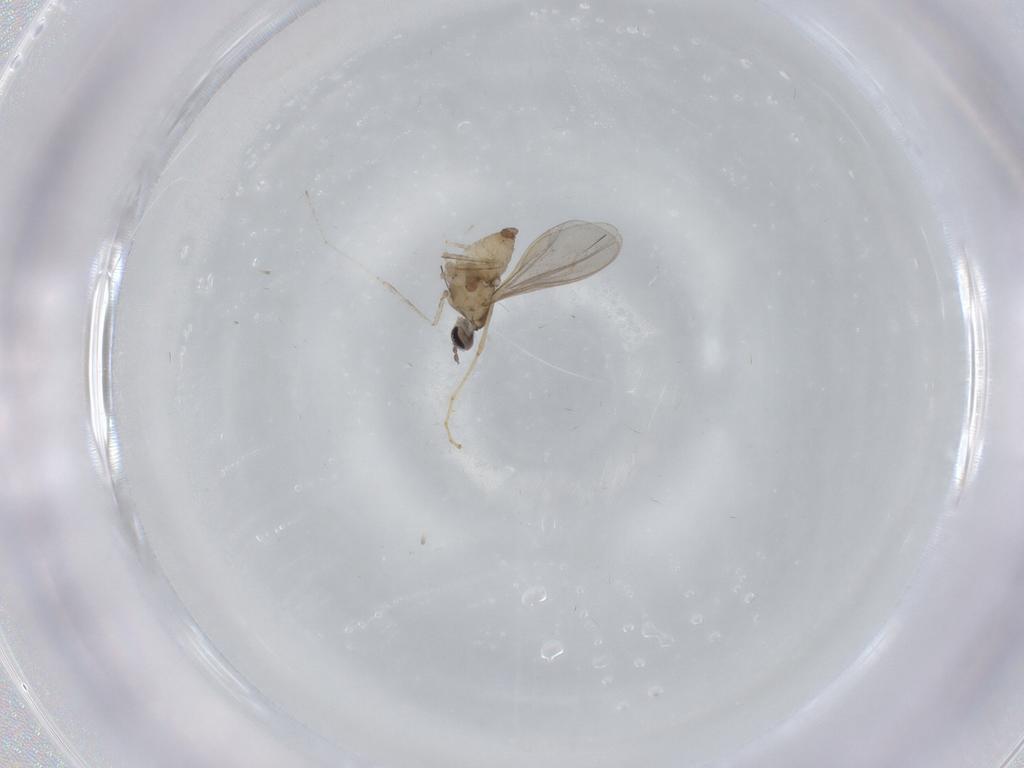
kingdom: Animalia
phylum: Arthropoda
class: Insecta
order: Diptera
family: Cecidomyiidae
